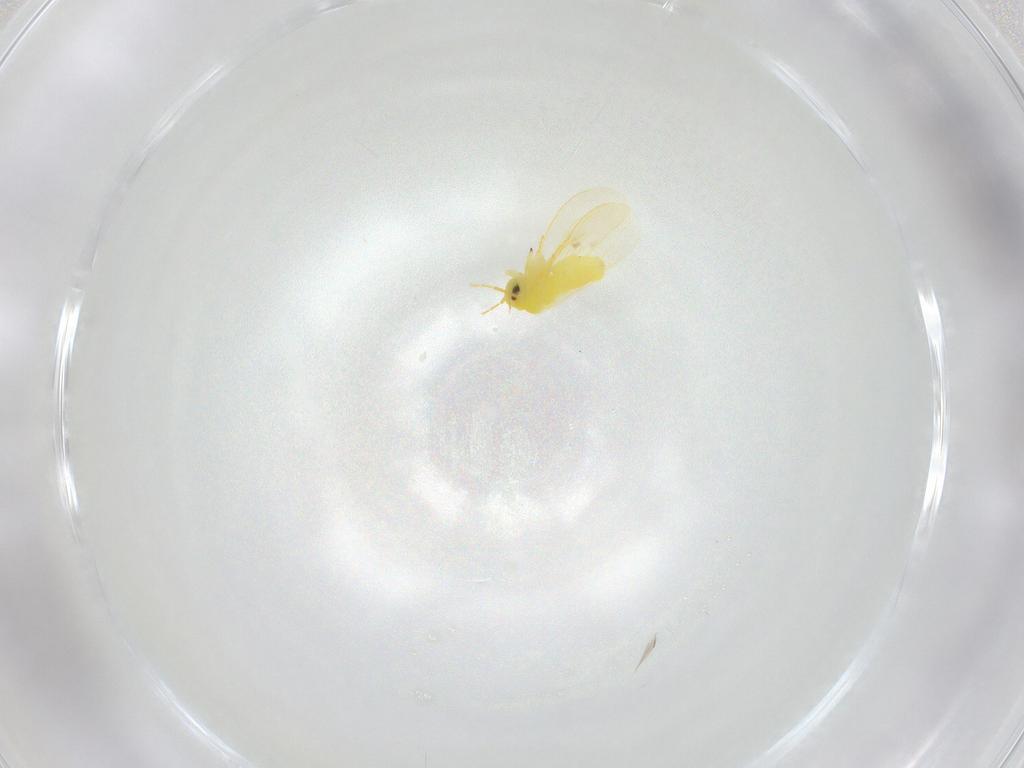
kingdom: Animalia
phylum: Arthropoda
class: Insecta
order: Hemiptera
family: Aleyrodidae
